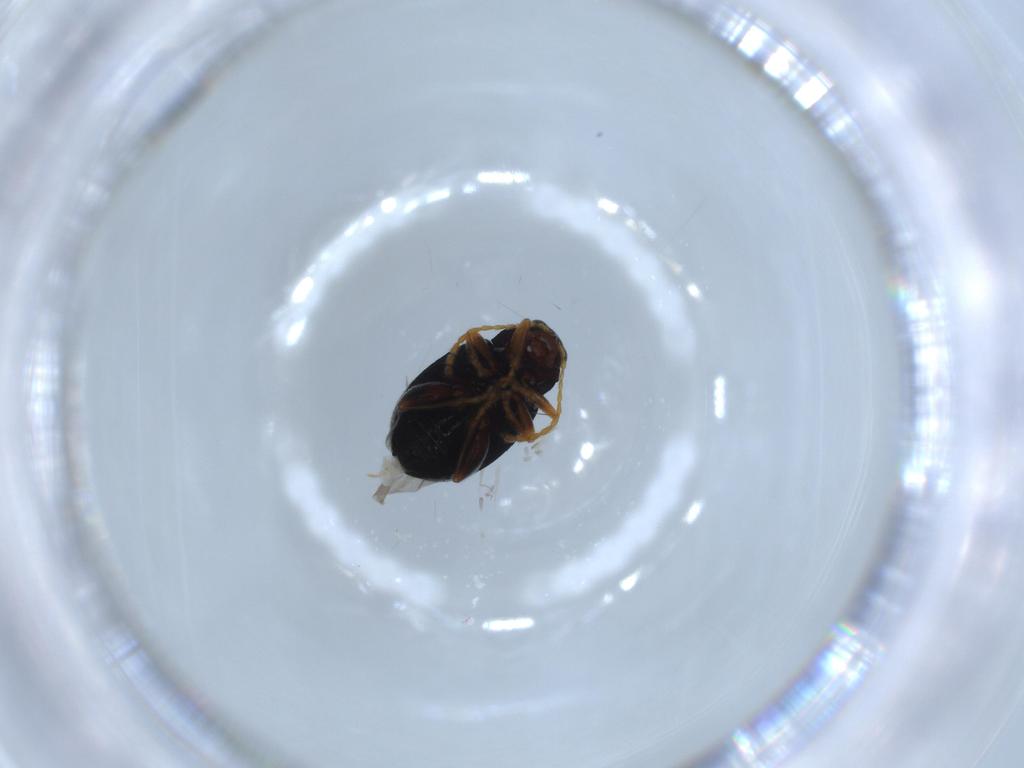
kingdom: Animalia
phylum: Arthropoda
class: Insecta
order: Coleoptera
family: Chrysomelidae
